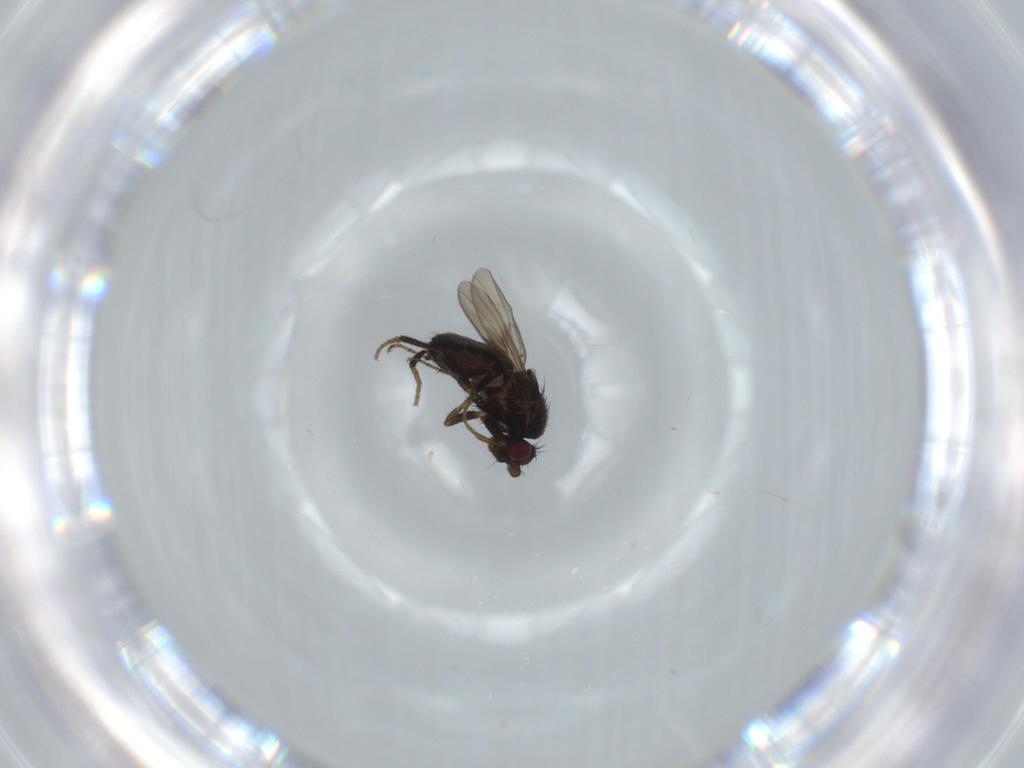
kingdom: Animalia
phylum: Arthropoda
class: Insecta
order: Diptera
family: Sphaeroceridae
